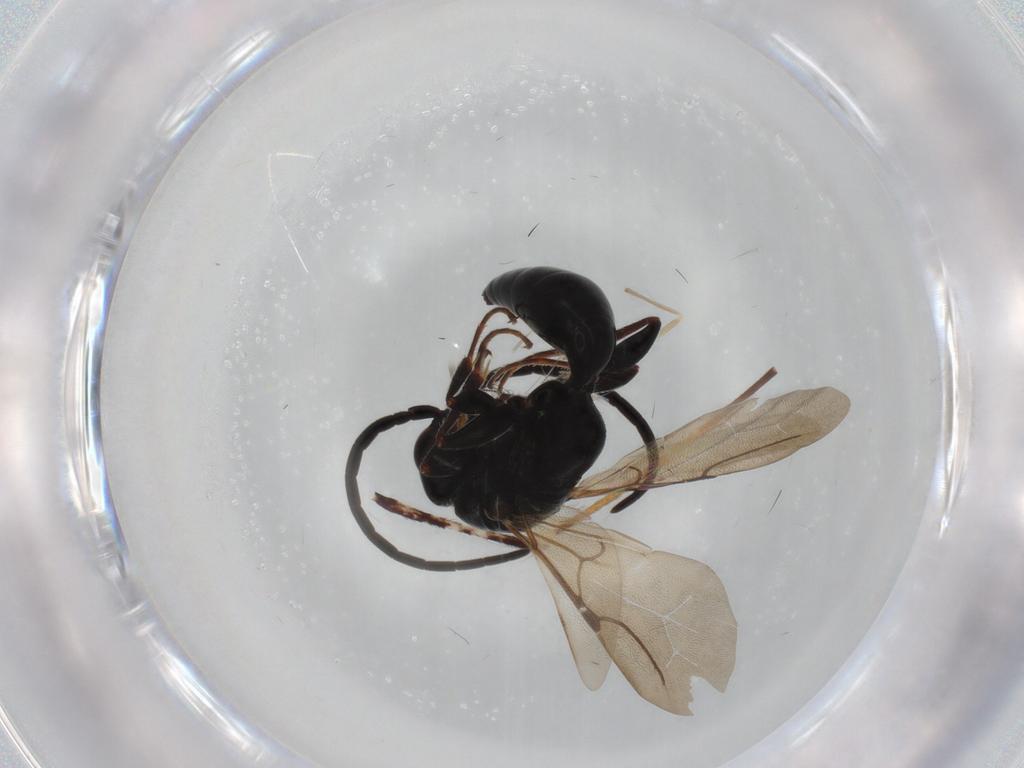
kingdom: Animalia
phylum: Arthropoda
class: Insecta
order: Hymenoptera
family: Bethylidae
